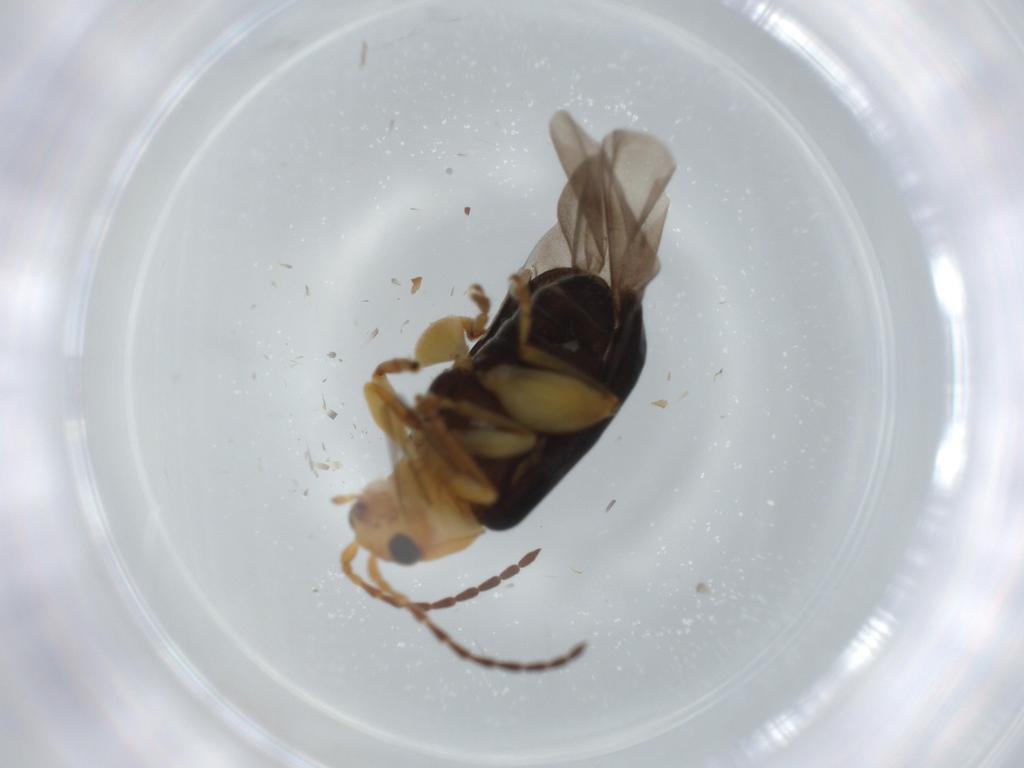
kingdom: Animalia
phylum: Arthropoda
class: Insecta
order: Coleoptera
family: Chrysomelidae
